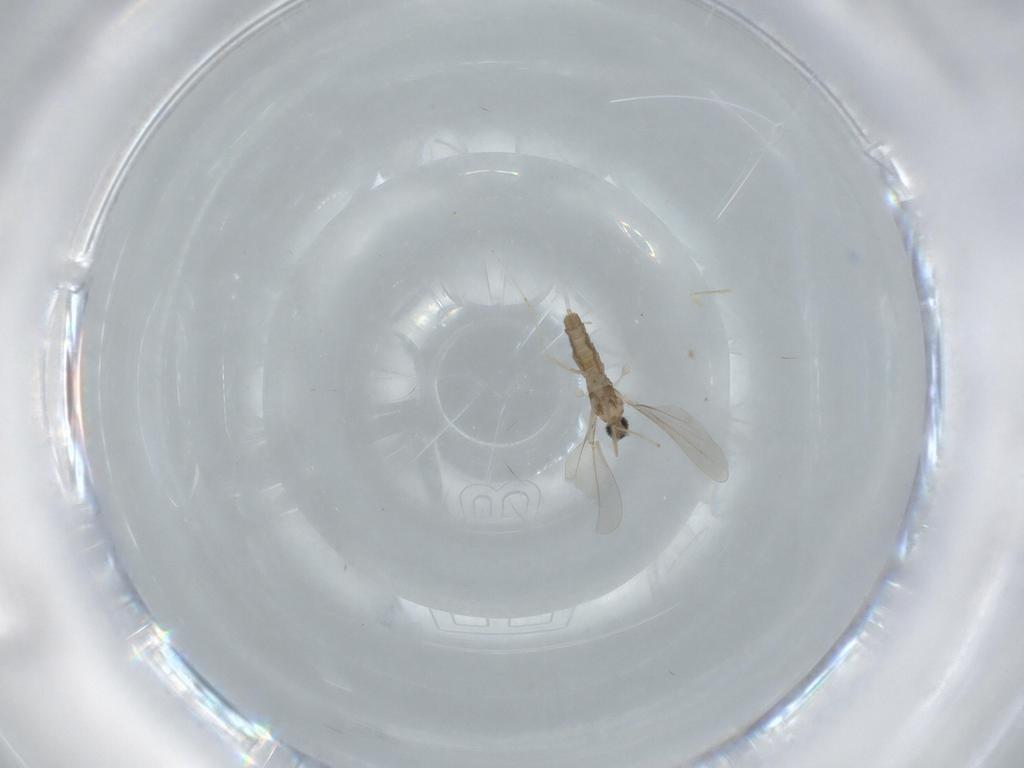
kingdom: Animalia
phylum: Arthropoda
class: Insecta
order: Diptera
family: Cecidomyiidae
